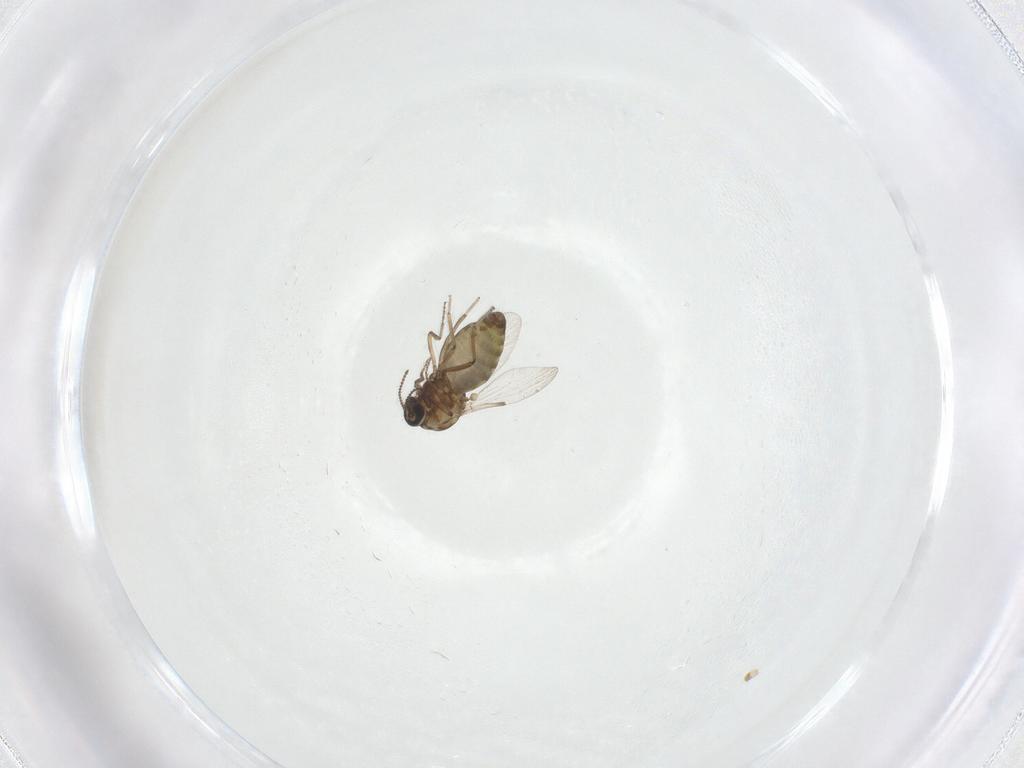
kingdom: Animalia
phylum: Arthropoda
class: Insecta
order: Diptera
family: Ceratopogonidae
